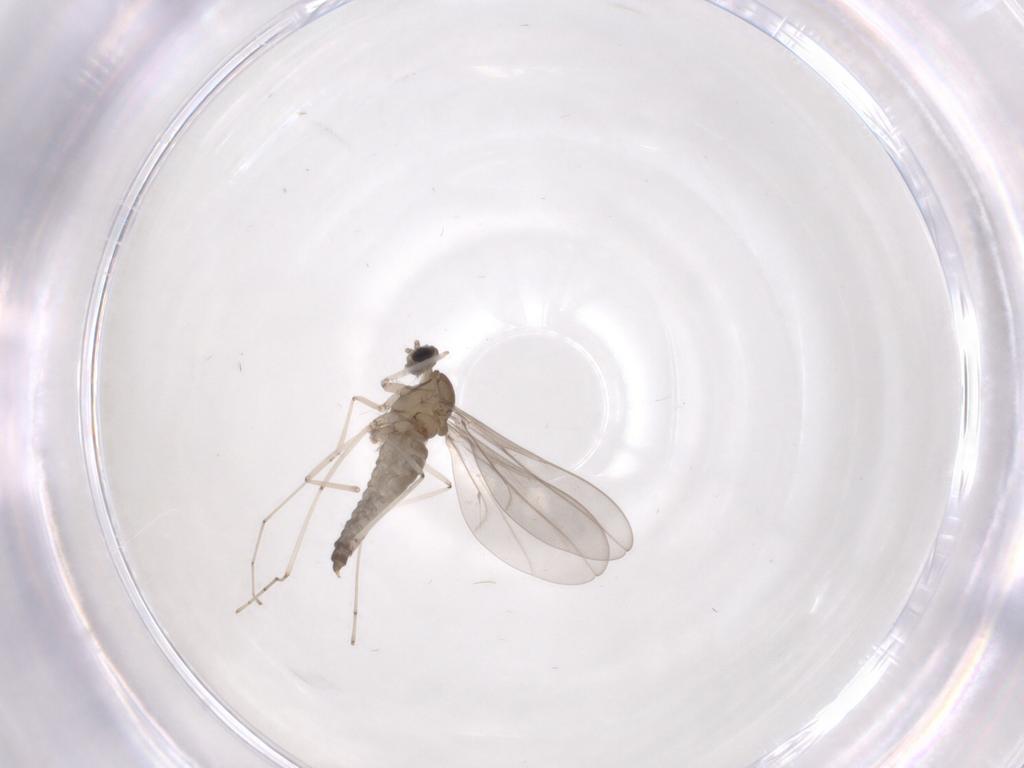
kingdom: Animalia
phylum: Arthropoda
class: Insecta
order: Diptera
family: Cecidomyiidae
